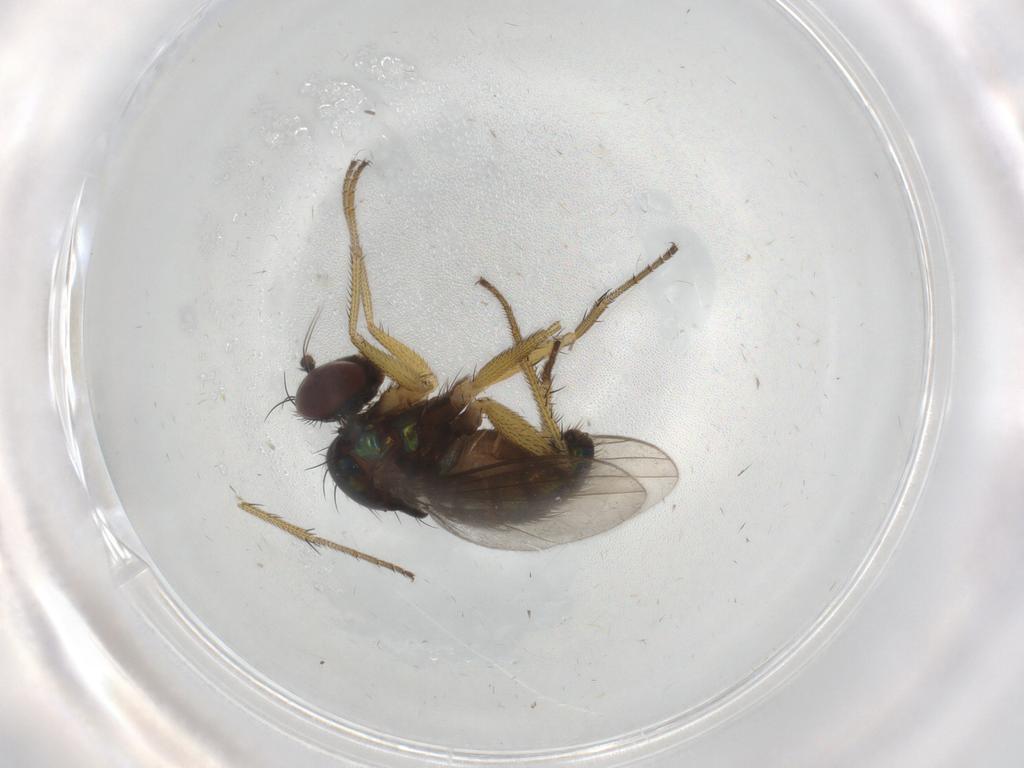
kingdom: Animalia
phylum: Arthropoda
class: Insecta
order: Diptera
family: Dolichopodidae
